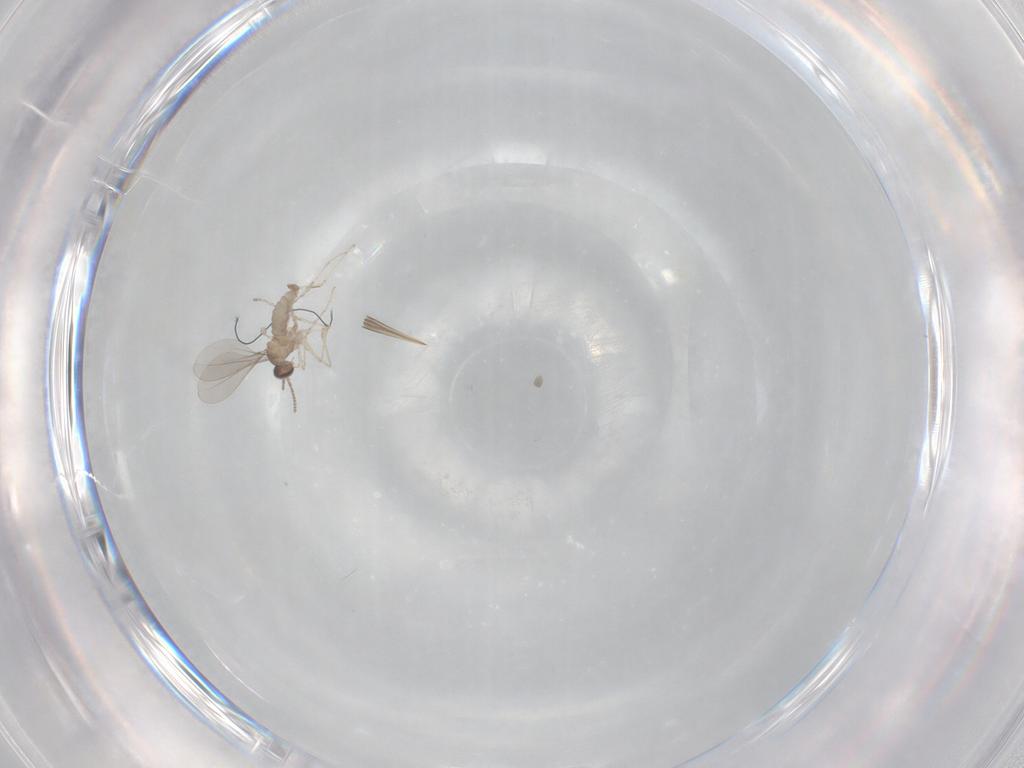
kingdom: Animalia
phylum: Arthropoda
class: Insecta
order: Diptera
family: Cecidomyiidae
